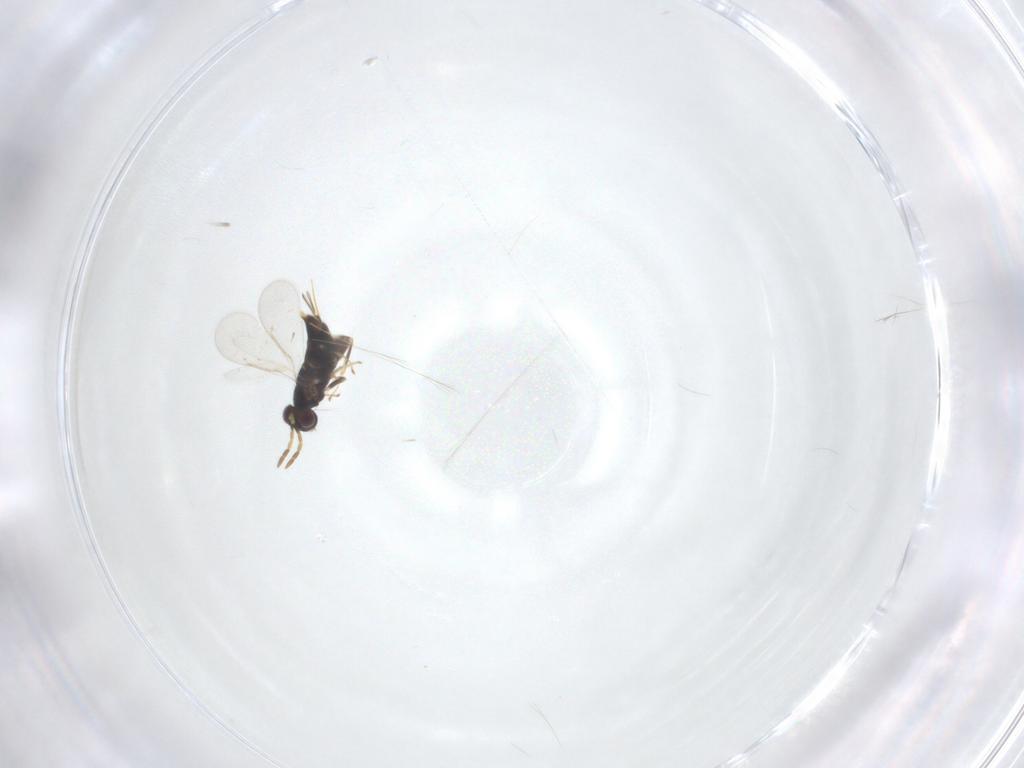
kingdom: Animalia
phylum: Arthropoda
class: Insecta
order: Hymenoptera
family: Aphelinidae
